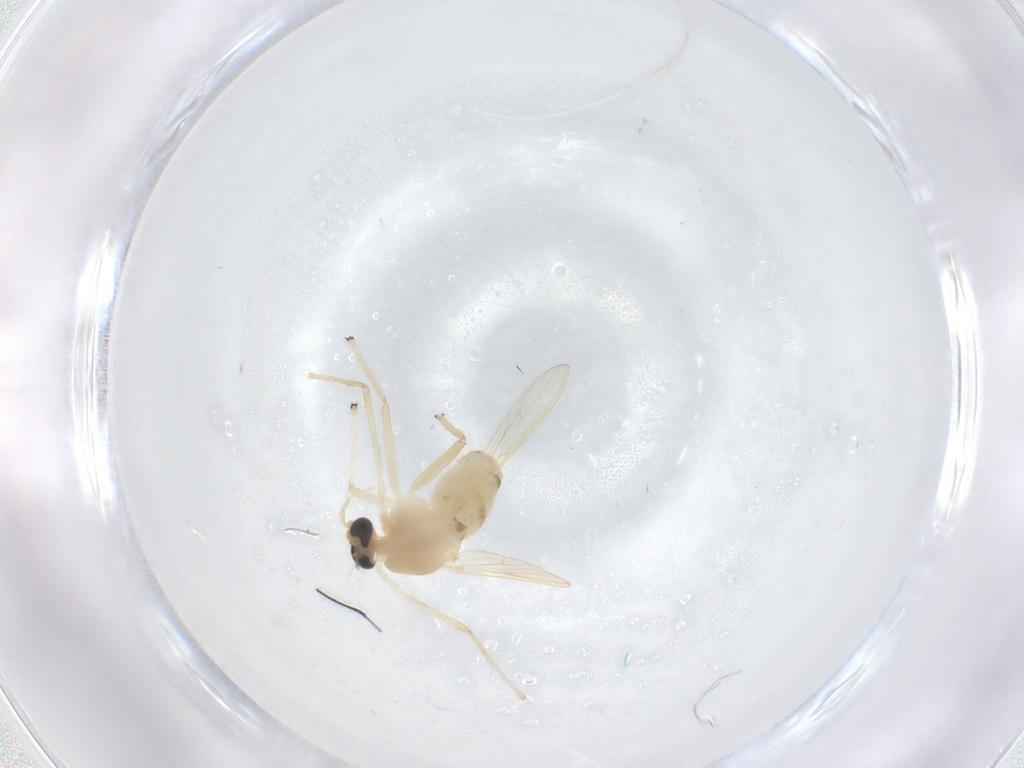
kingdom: Animalia
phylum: Arthropoda
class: Insecta
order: Diptera
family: Chironomidae
